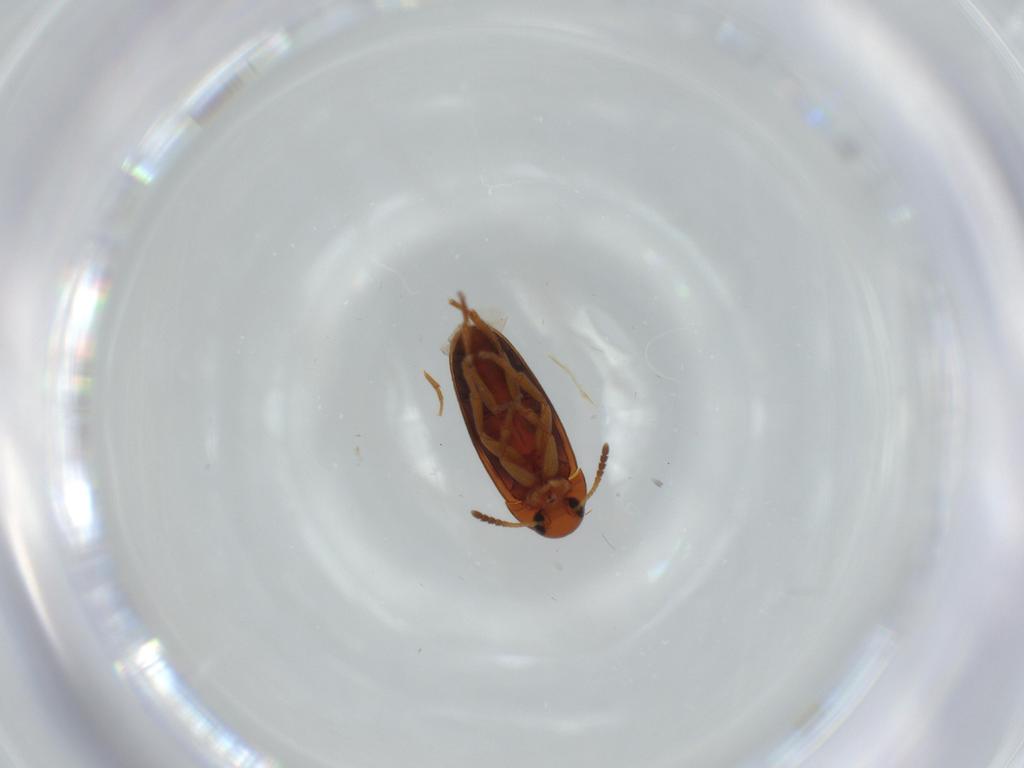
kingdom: Animalia
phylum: Arthropoda
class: Insecta
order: Coleoptera
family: Scraptiidae
